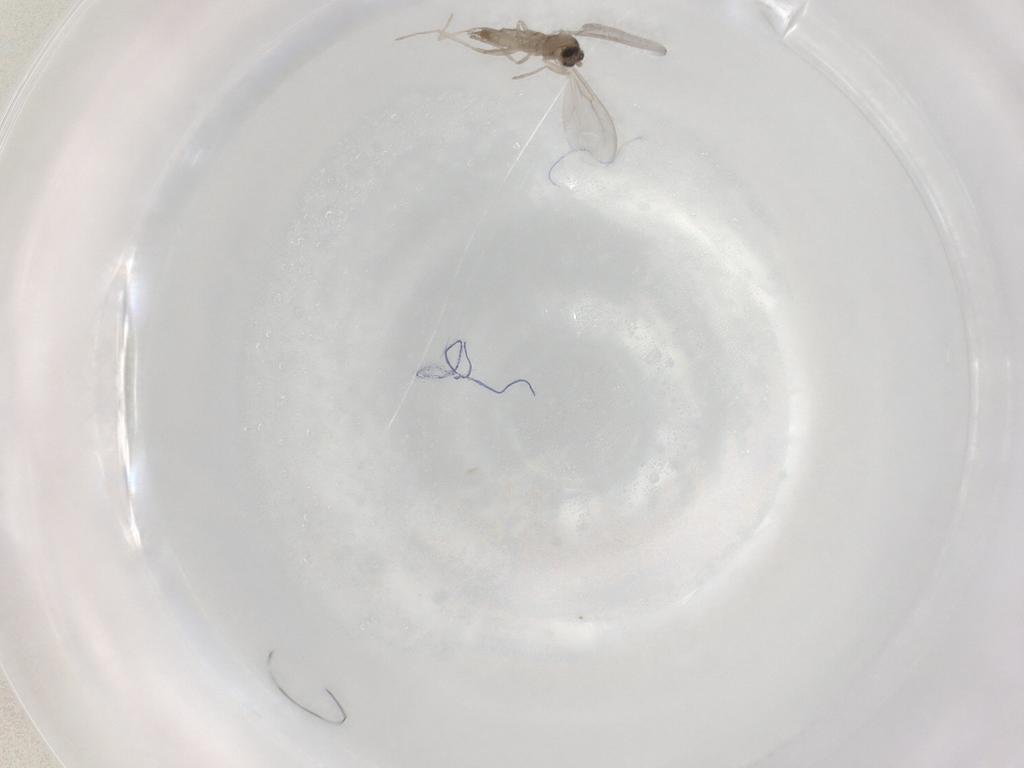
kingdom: Animalia
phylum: Arthropoda
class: Insecta
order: Diptera
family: Cecidomyiidae
